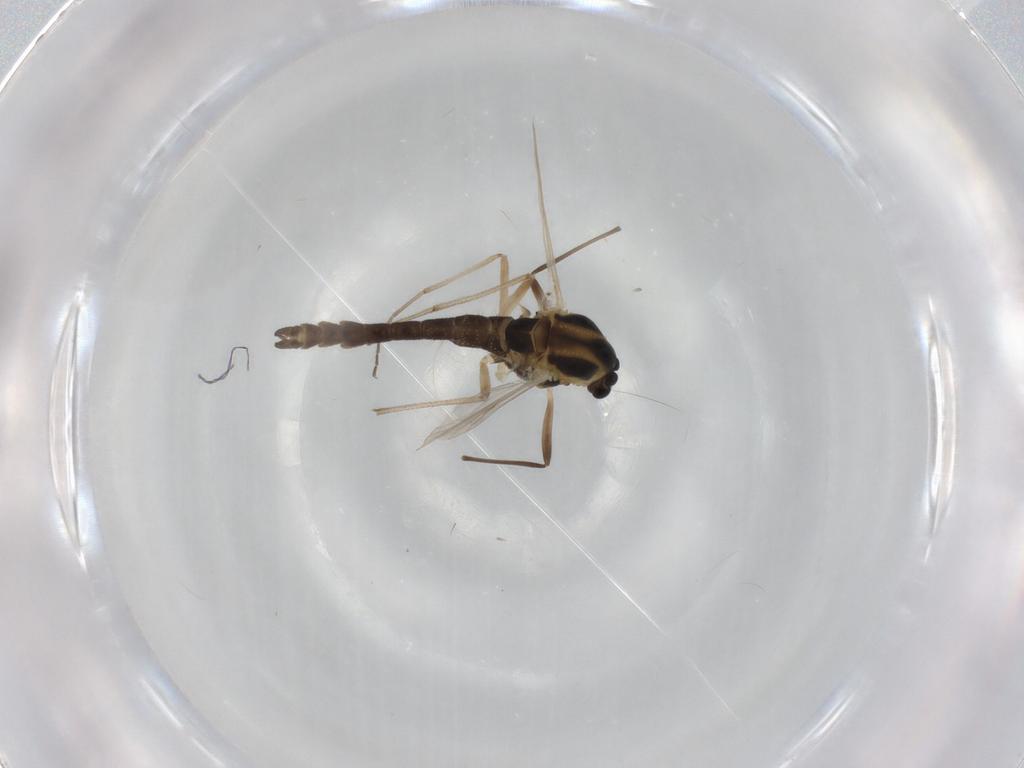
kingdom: Animalia
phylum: Arthropoda
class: Insecta
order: Diptera
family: Chironomidae
